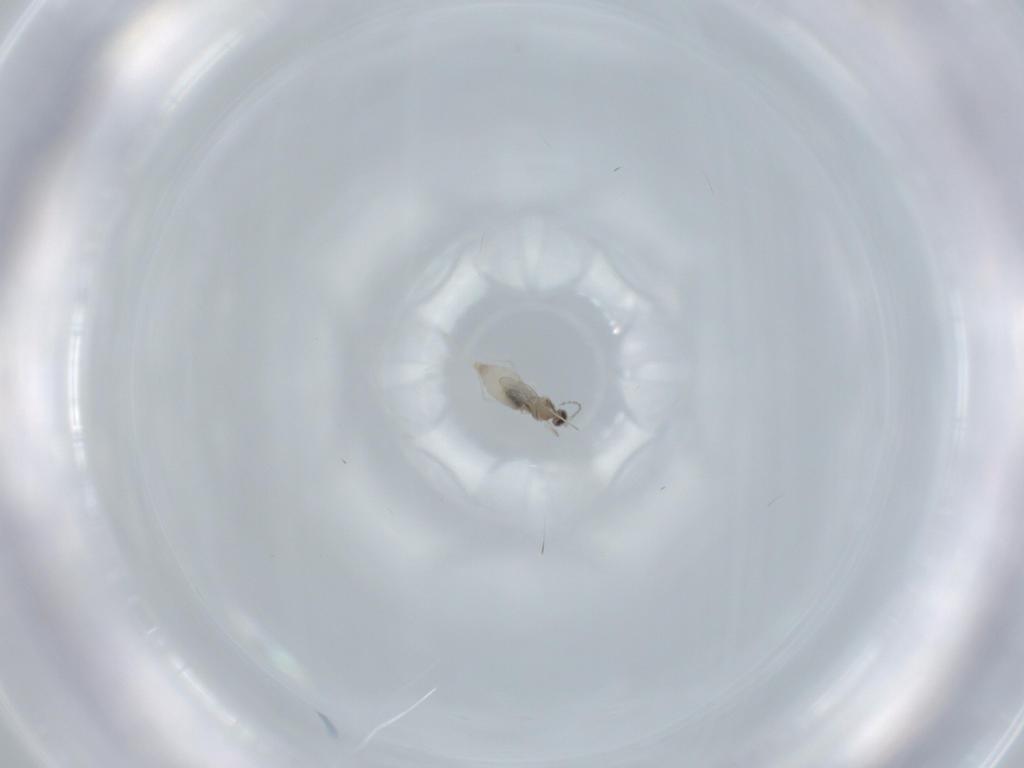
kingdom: Animalia
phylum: Arthropoda
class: Insecta
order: Diptera
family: Cecidomyiidae
